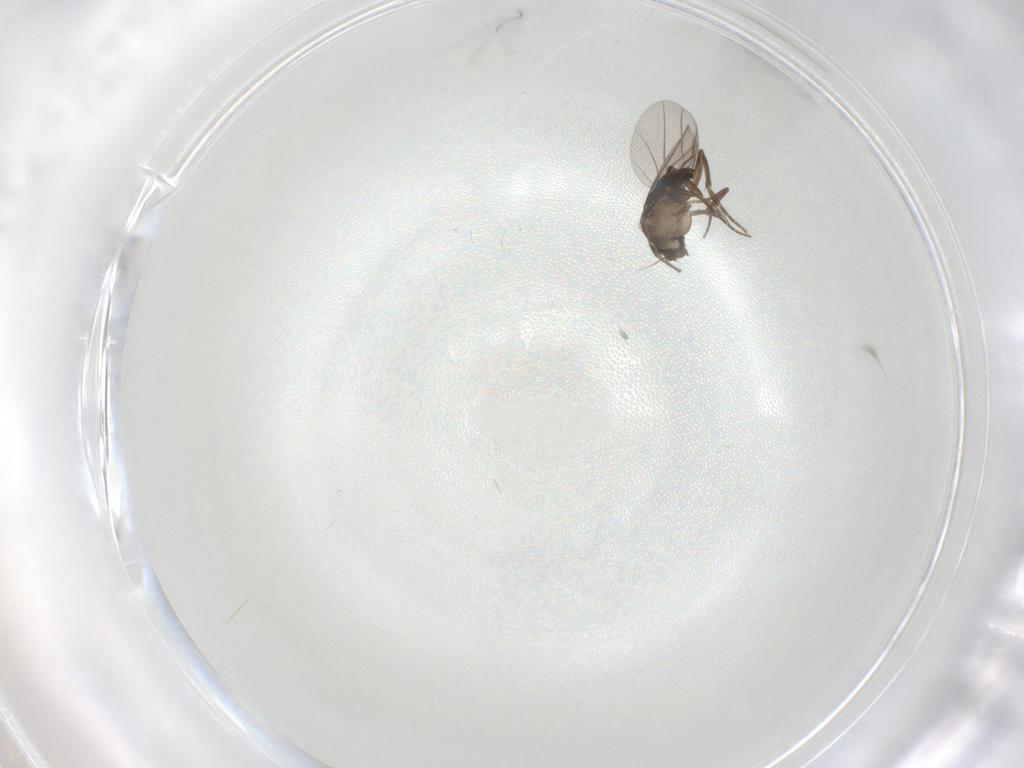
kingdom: Animalia
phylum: Arthropoda
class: Insecta
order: Diptera
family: Phoridae
